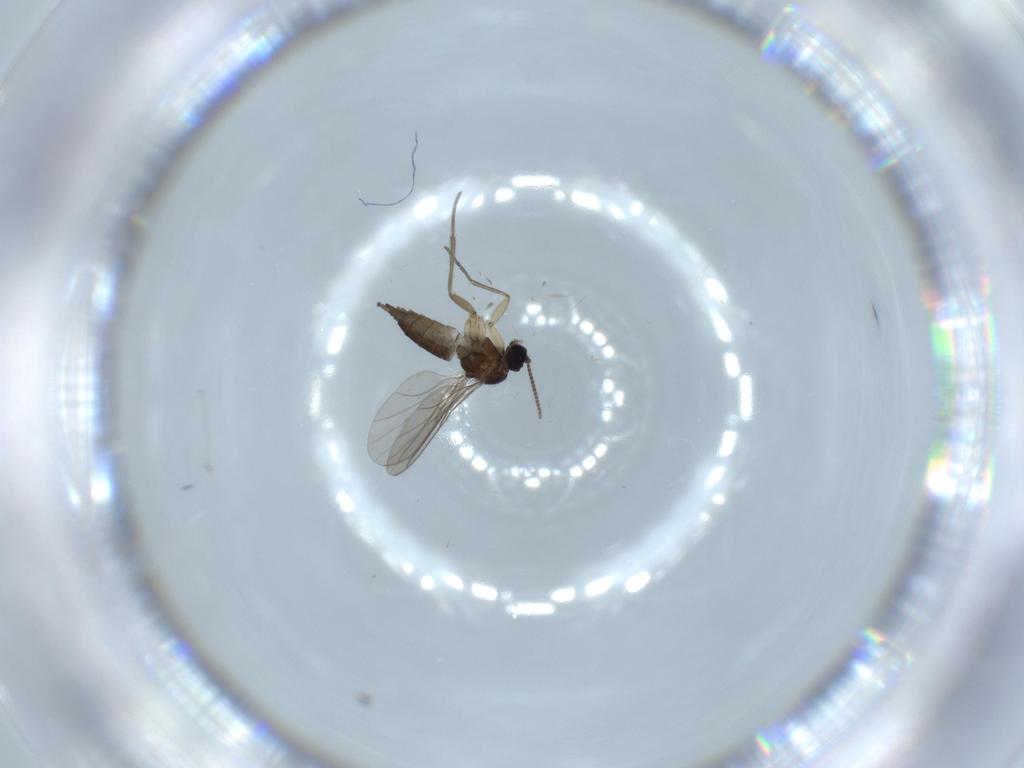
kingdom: Animalia
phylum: Arthropoda
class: Insecta
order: Diptera
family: Sciaridae
